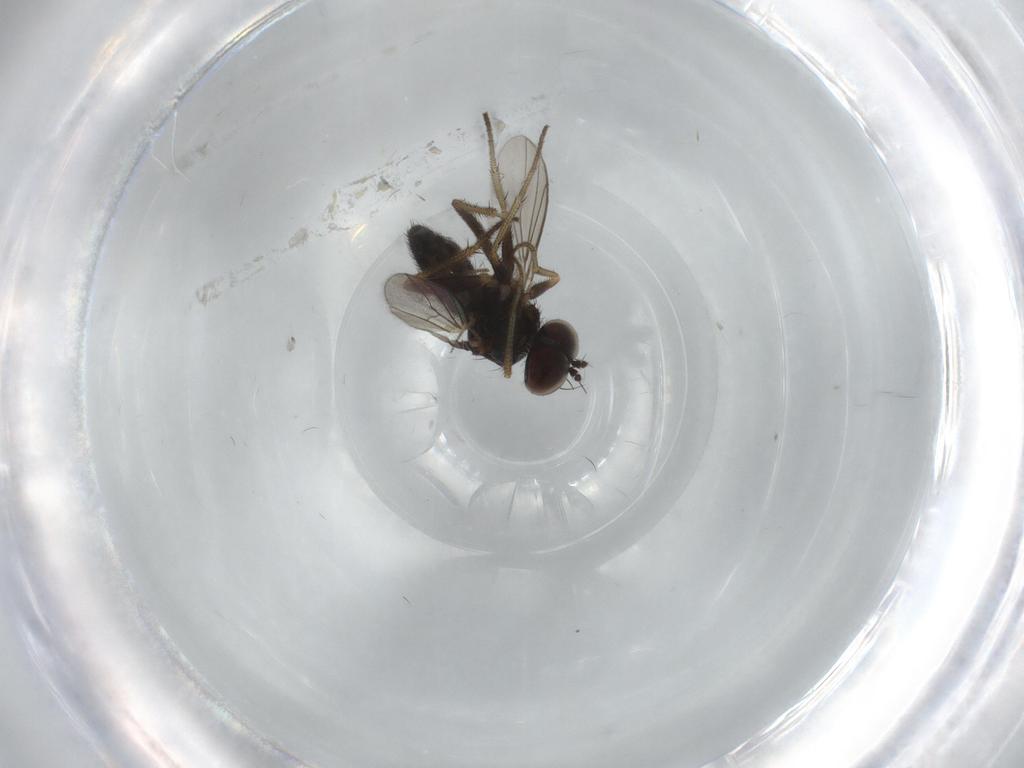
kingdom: Animalia
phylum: Arthropoda
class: Insecta
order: Diptera
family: Dolichopodidae
